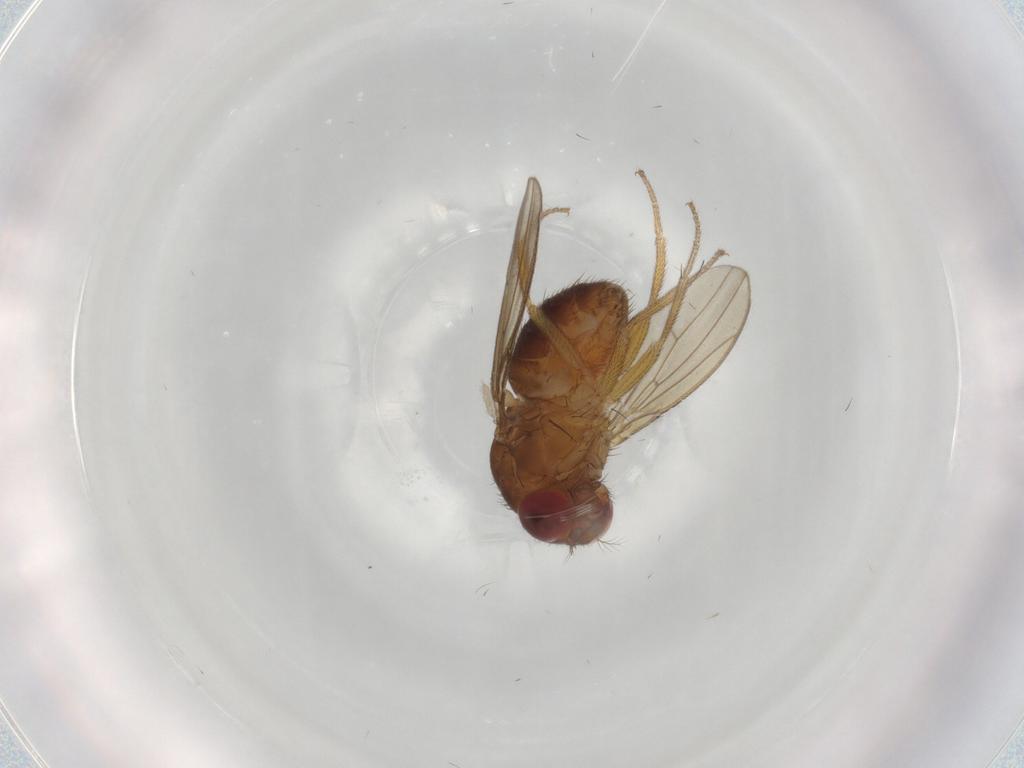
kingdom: Animalia
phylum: Arthropoda
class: Insecta
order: Diptera
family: Drosophilidae
